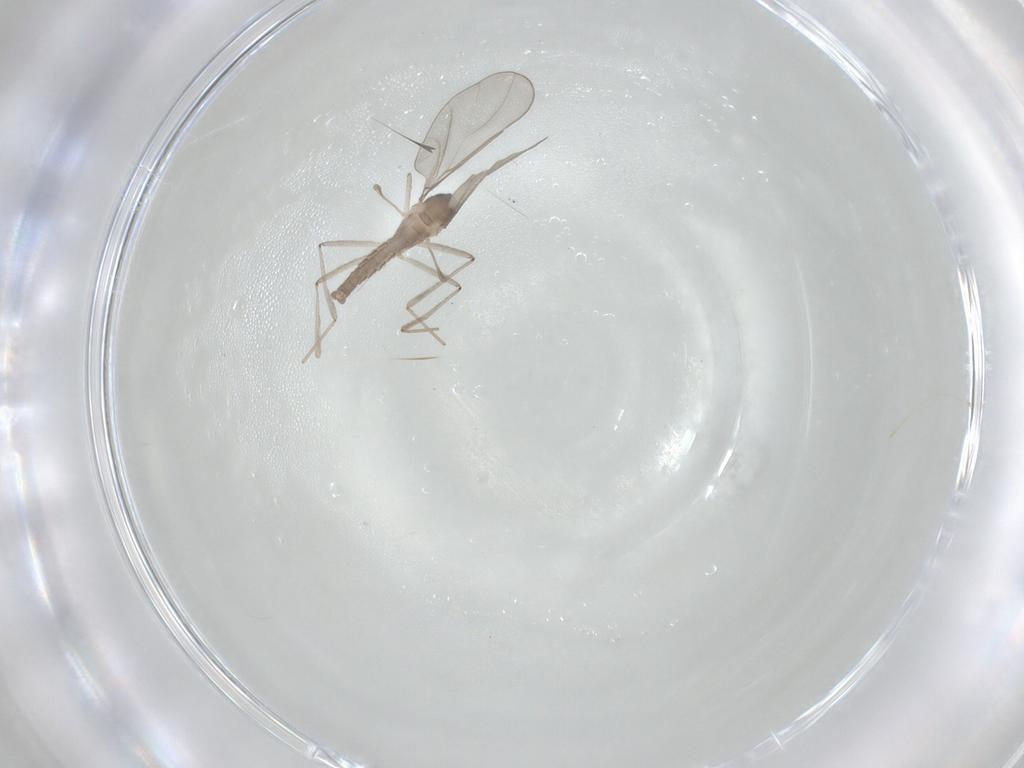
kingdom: Animalia
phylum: Arthropoda
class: Insecta
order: Diptera
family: Cecidomyiidae
